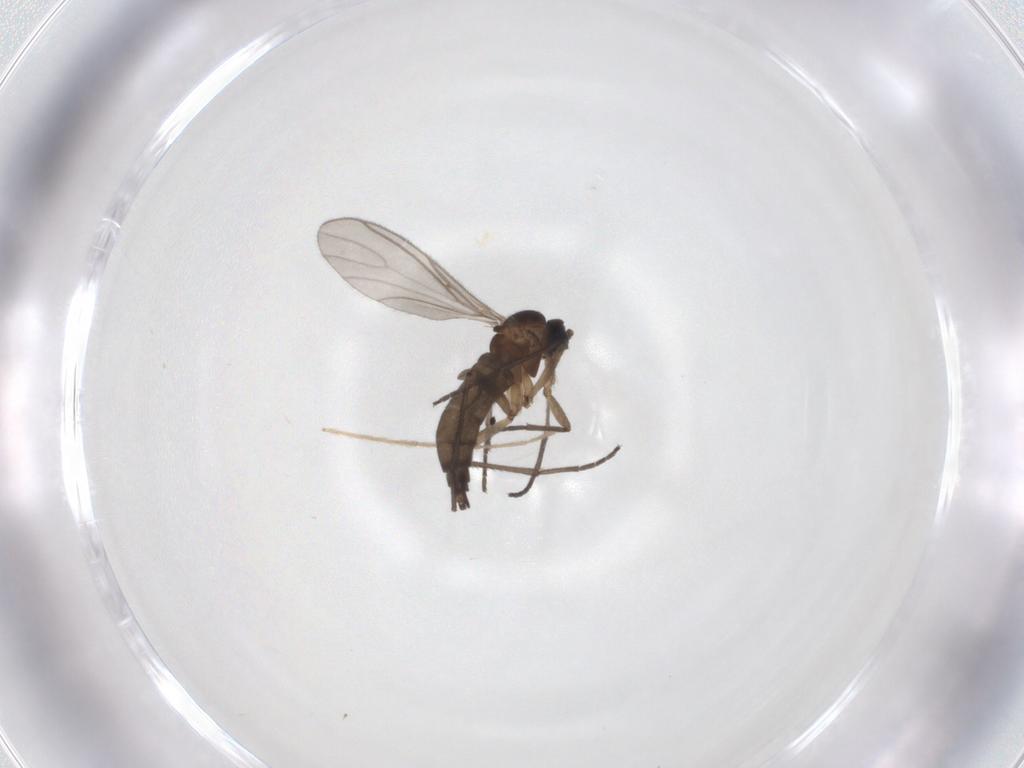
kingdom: Animalia
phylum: Arthropoda
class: Insecta
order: Diptera
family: Sciaridae
